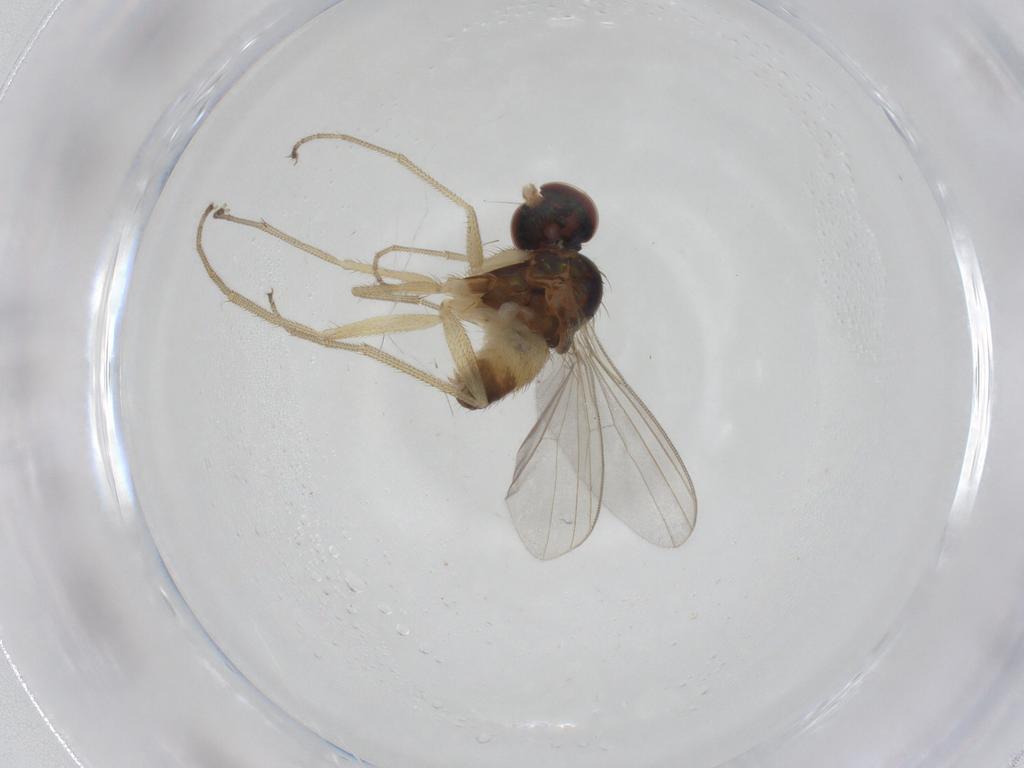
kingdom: Animalia
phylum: Arthropoda
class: Insecta
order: Diptera
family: Dolichopodidae
